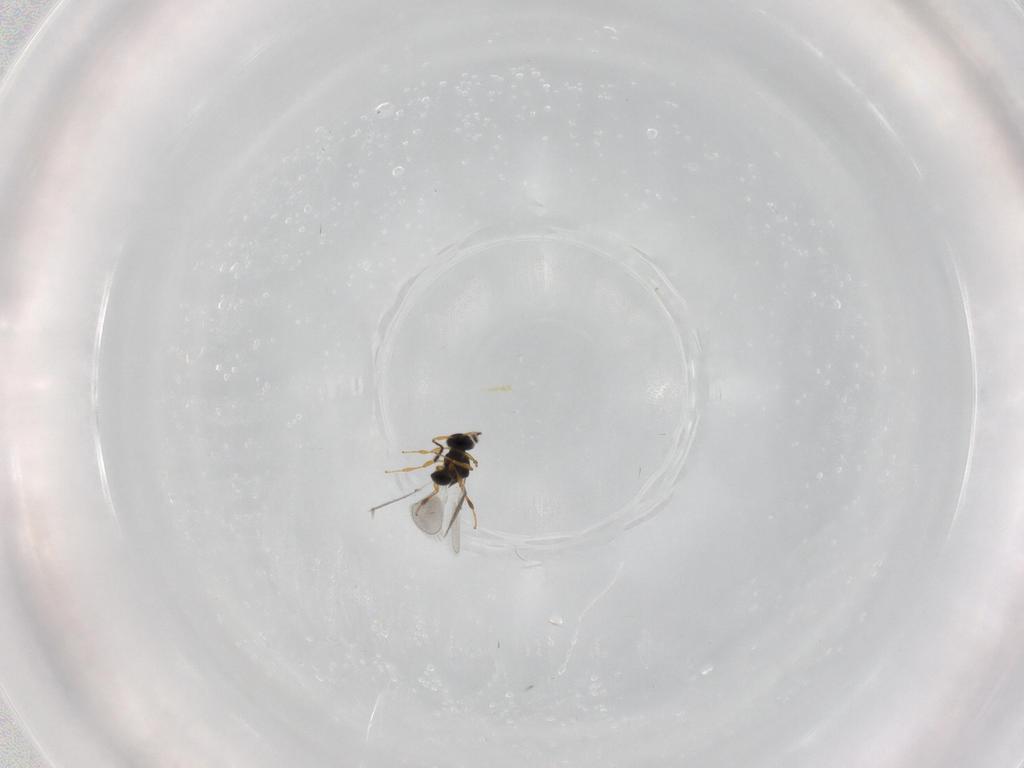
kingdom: Animalia
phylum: Arthropoda
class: Insecta
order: Hymenoptera
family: Platygastridae
